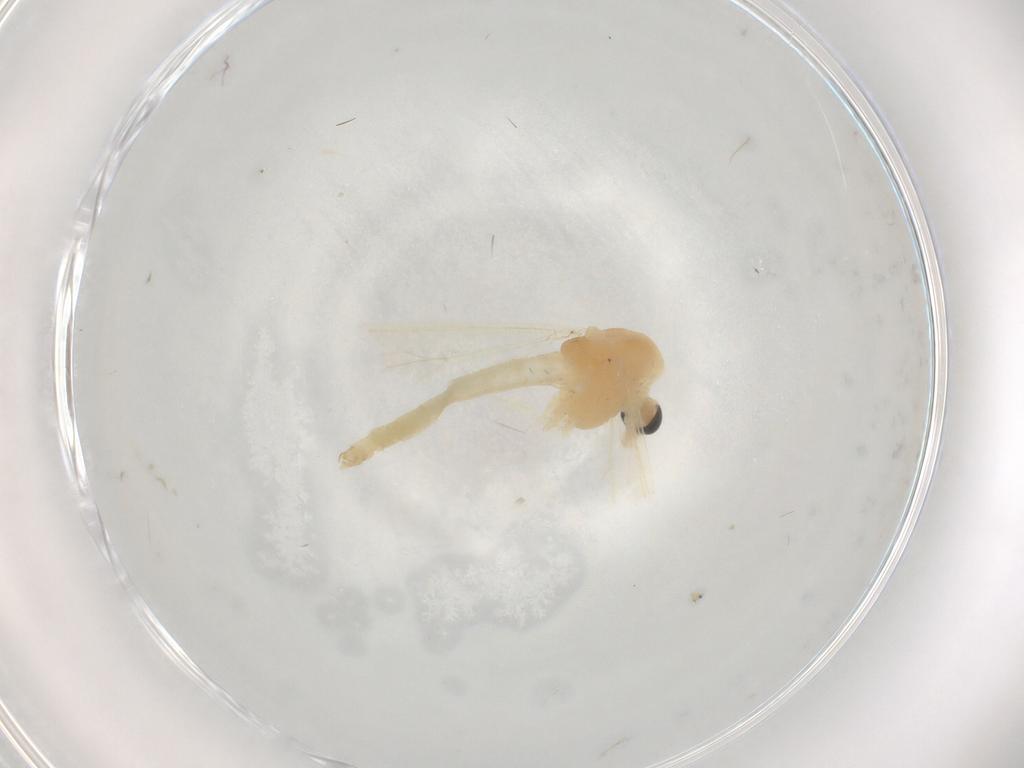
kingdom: Animalia
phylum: Arthropoda
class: Insecta
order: Diptera
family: Chironomidae
